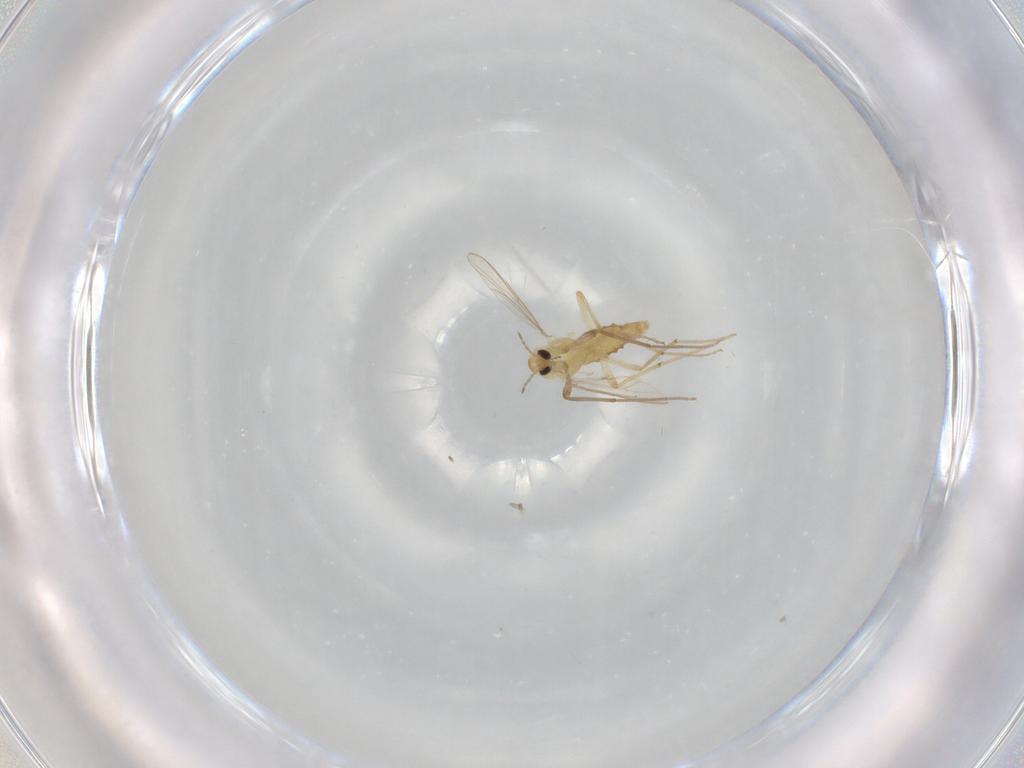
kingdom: Animalia
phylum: Arthropoda
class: Insecta
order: Diptera
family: Chironomidae
